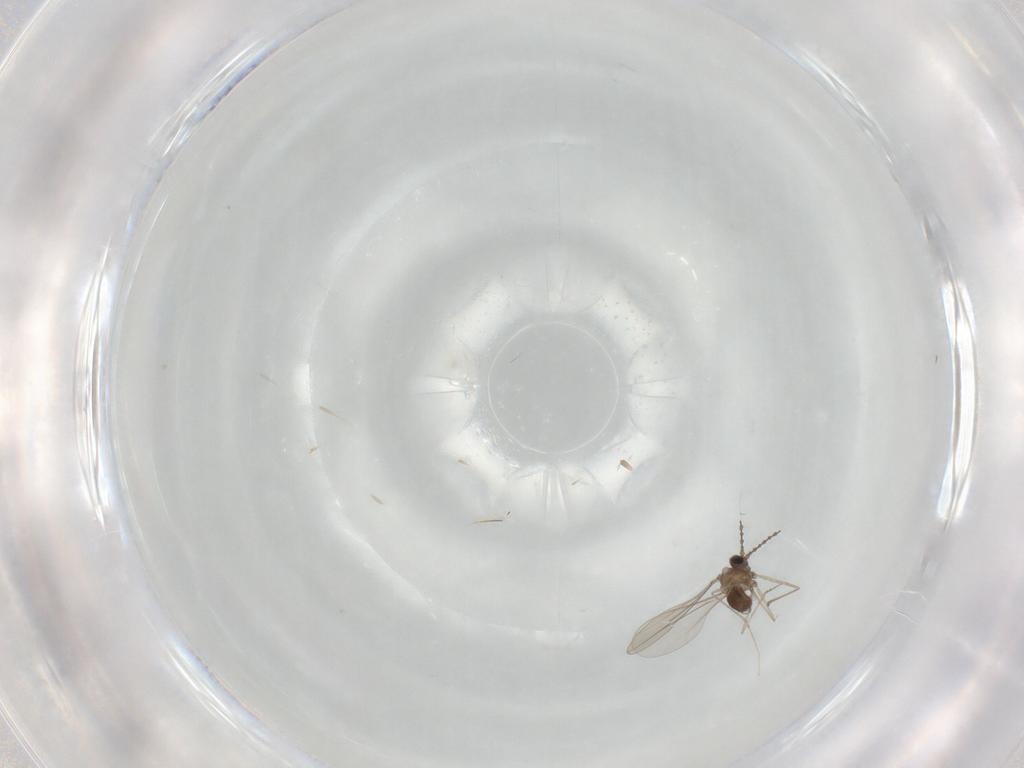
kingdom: Animalia
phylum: Arthropoda
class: Insecta
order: Diptera
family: Cecidomyiidae
